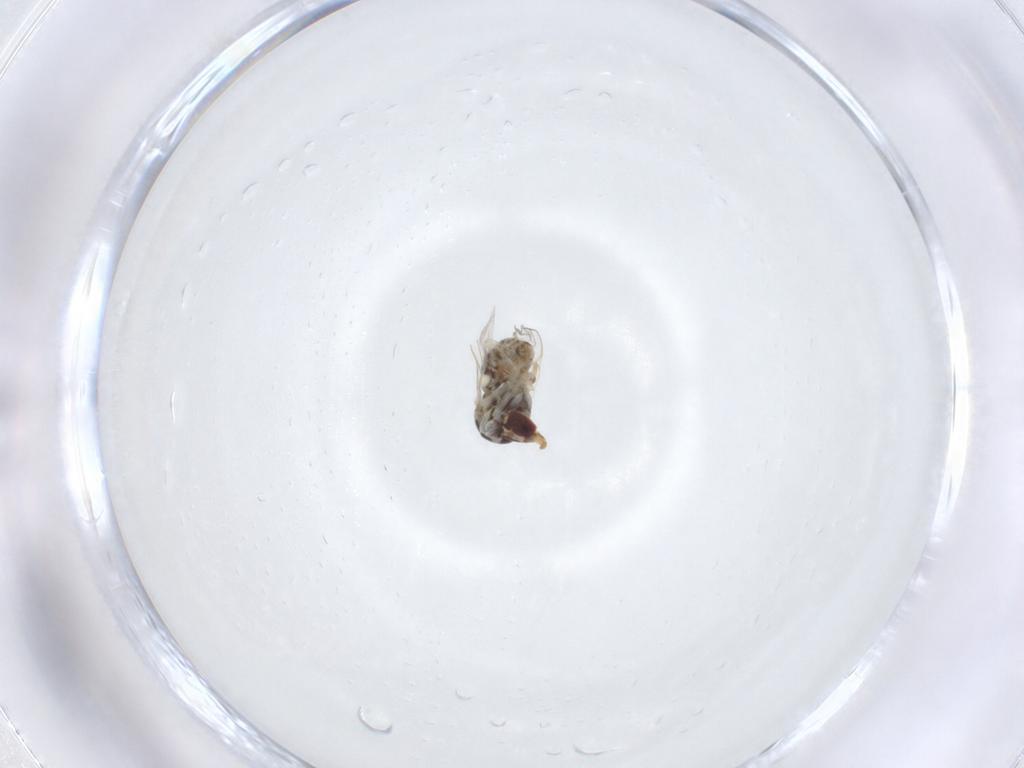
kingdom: Animalia
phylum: Arthropoda
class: Insecta
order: Diptera
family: Bombyliidae
